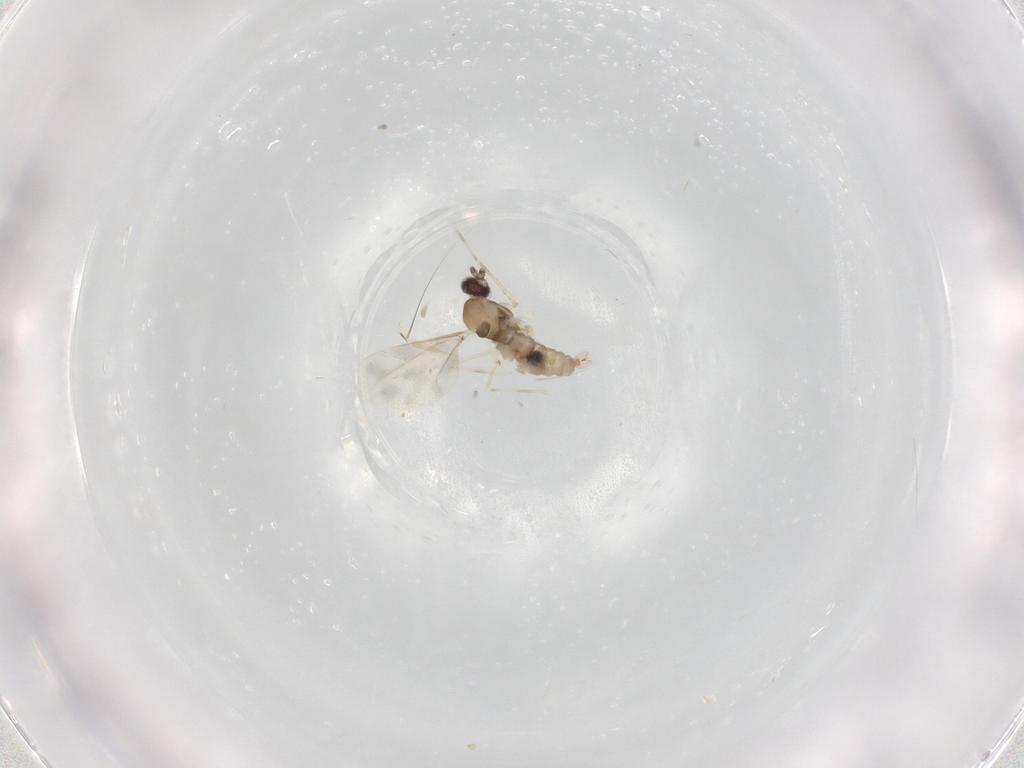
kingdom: Animalia
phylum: Arthropoda
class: Insecta
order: Diptera
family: Cecidomyiidae
